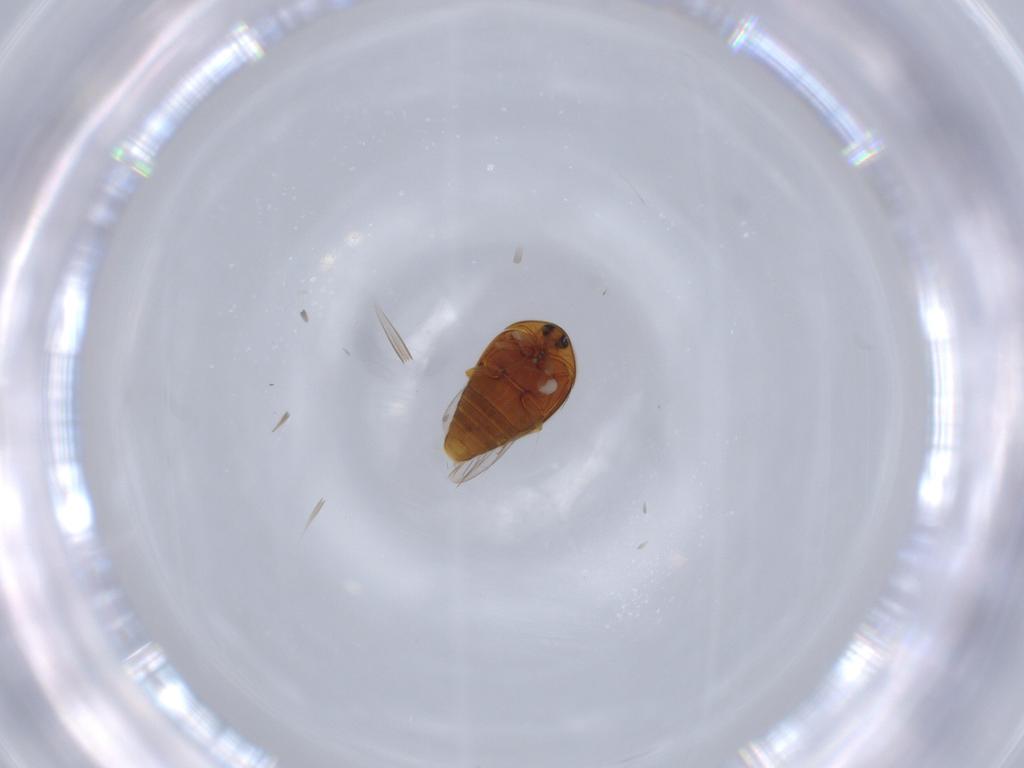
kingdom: Animalia
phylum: Arthropoda
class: Insecta
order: Coleoptera
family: Corylophidae
